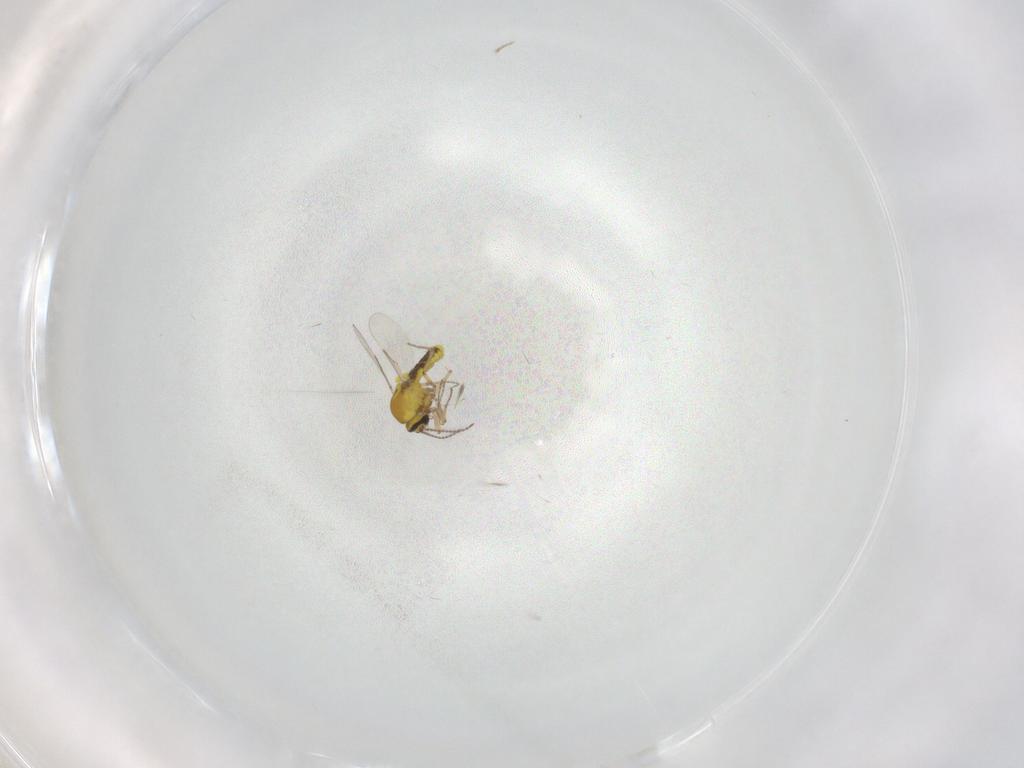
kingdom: Animalia
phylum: Arthropoda
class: Insecta
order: Diptera
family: Ceratopogonidae
